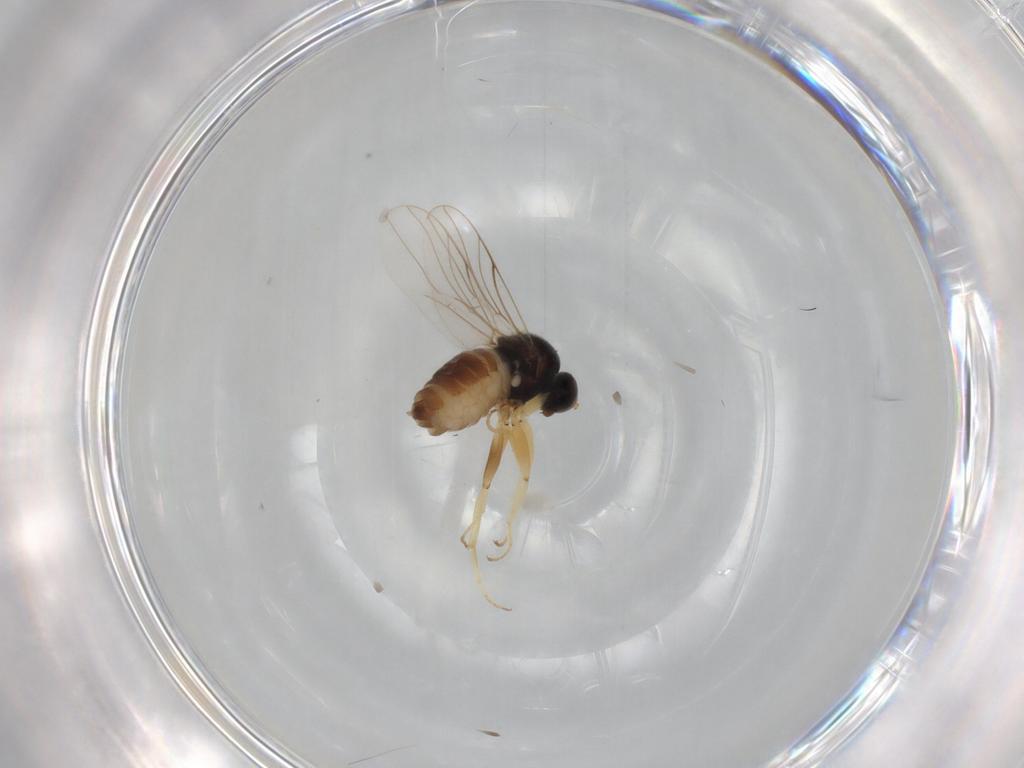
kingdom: Animalia
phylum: Arthropoda
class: Insecta
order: Diptera
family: Hybotidae
